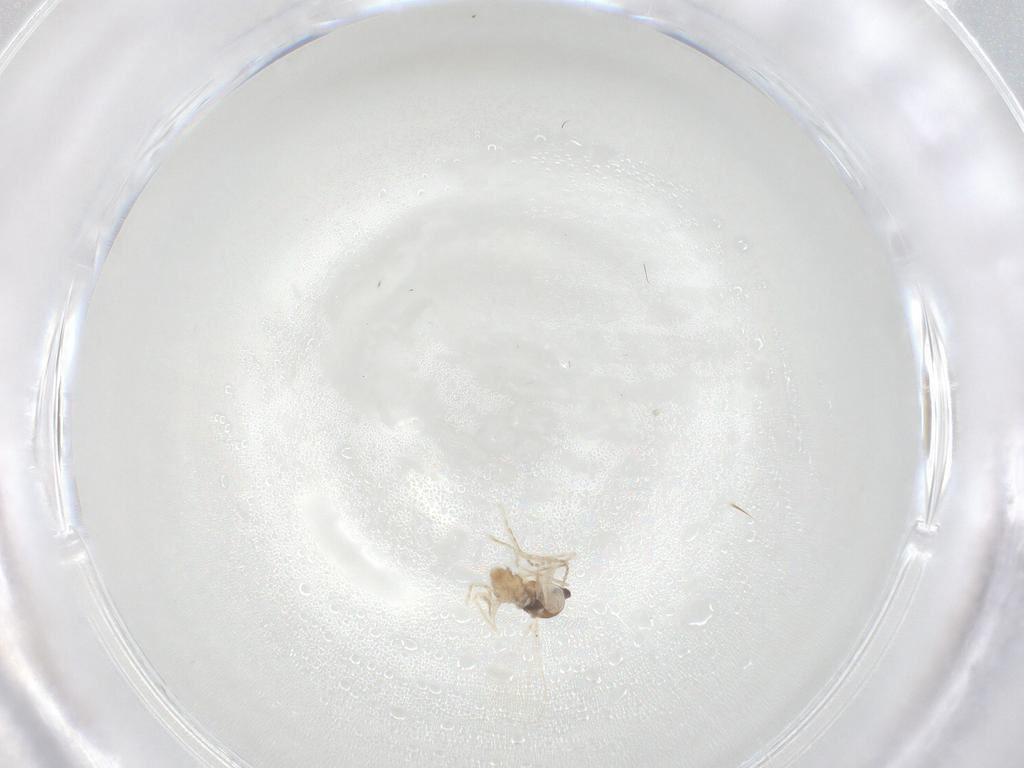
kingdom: Animalia
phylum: Arthropoda
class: Insecta
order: Diptera
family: Cecidomyiidae
